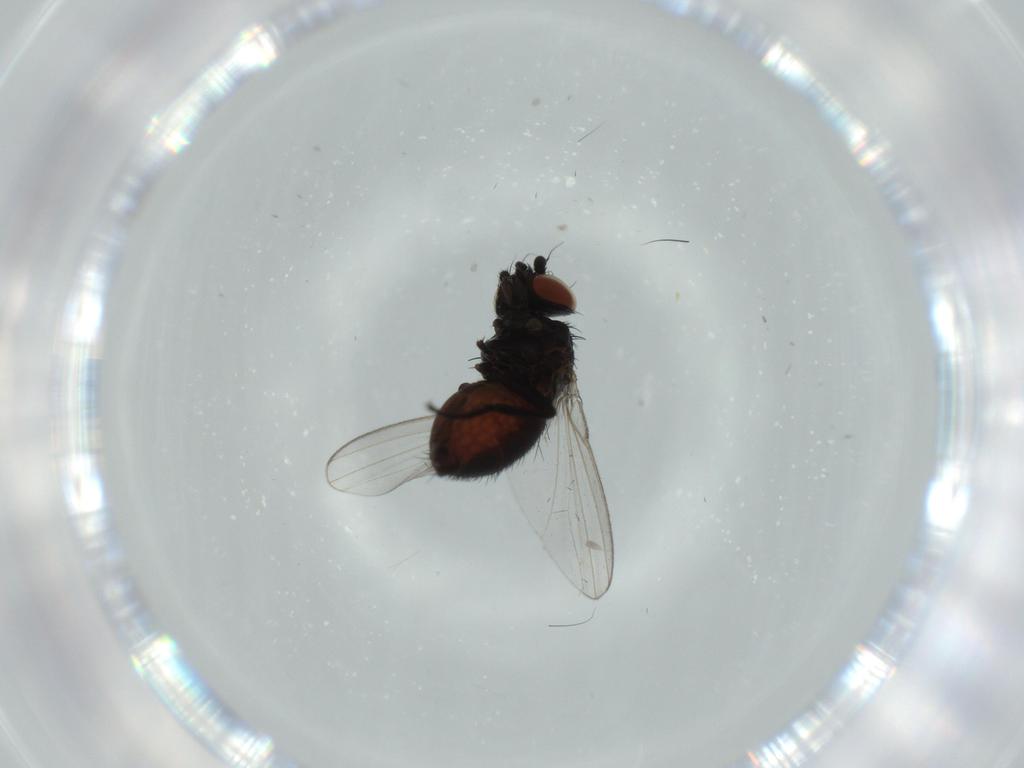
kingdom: Animalia
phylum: Arthropoda
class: Insecta
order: Diptera
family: Milichiidae
